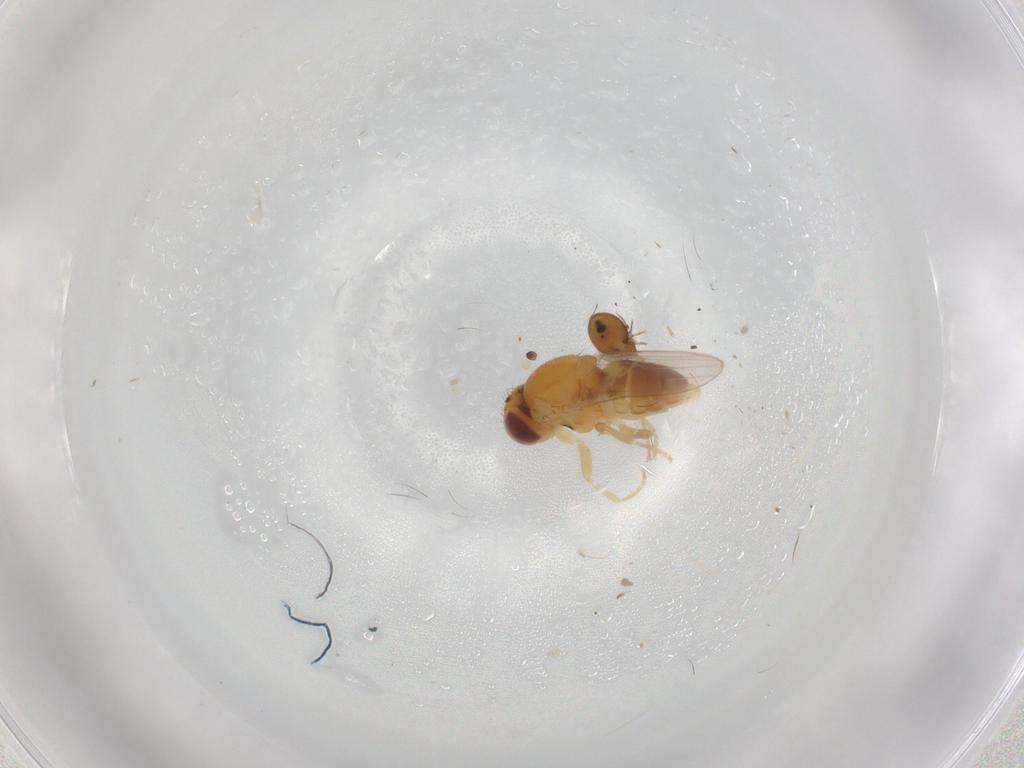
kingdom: Animalia
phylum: Arthropoda
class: Insecta
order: Diptera
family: Chloropidae
